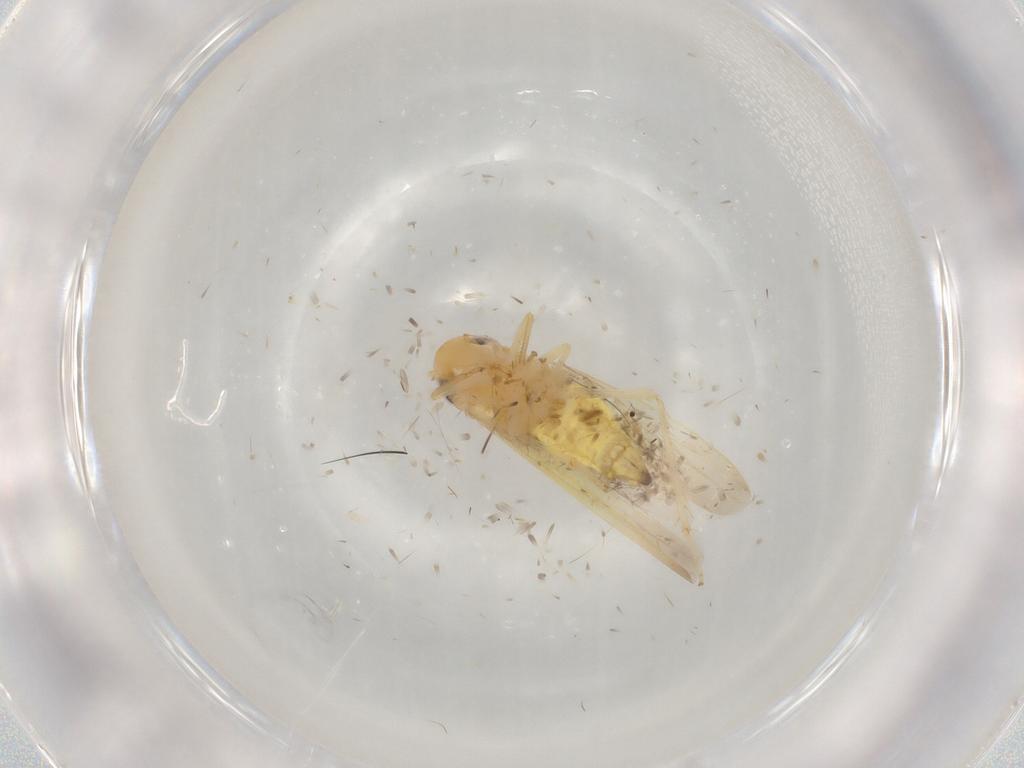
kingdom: Animalia
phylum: Arthropoda
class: Insecta
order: Hemiptera
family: Cicadellidae
